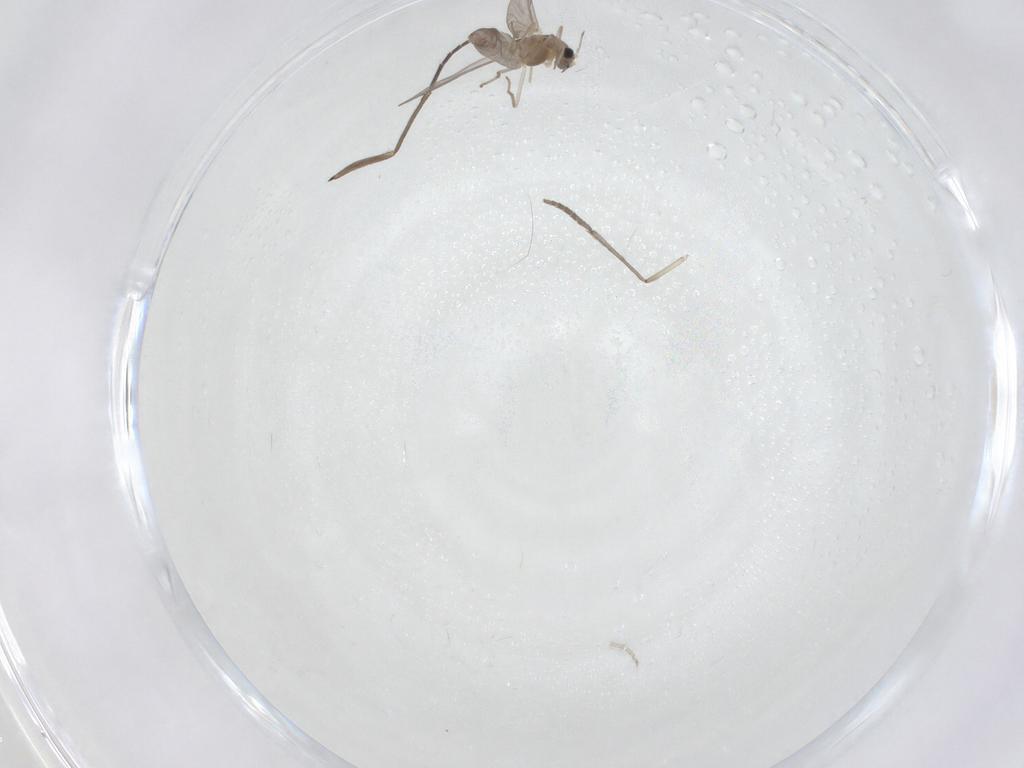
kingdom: Animalia
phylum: Arthropoda
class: Insecta
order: Diptera
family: Chironomidae
